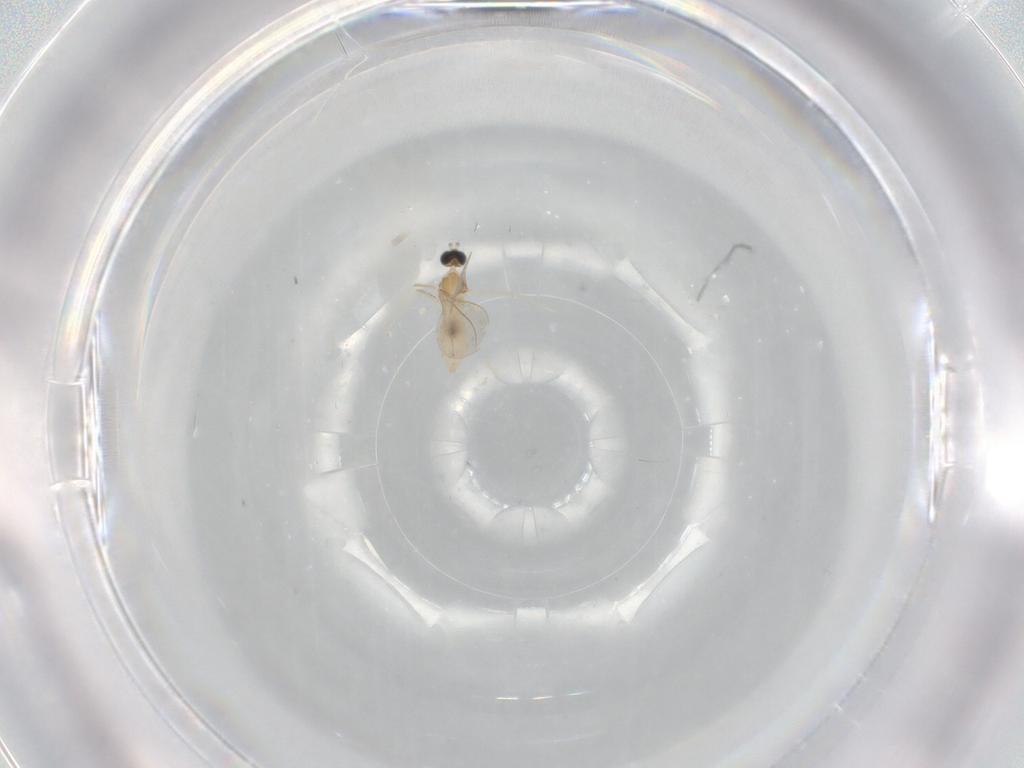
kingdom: Animalia
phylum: Arthropoda
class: Insecta
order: Diptera
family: Cecidomyiidae
